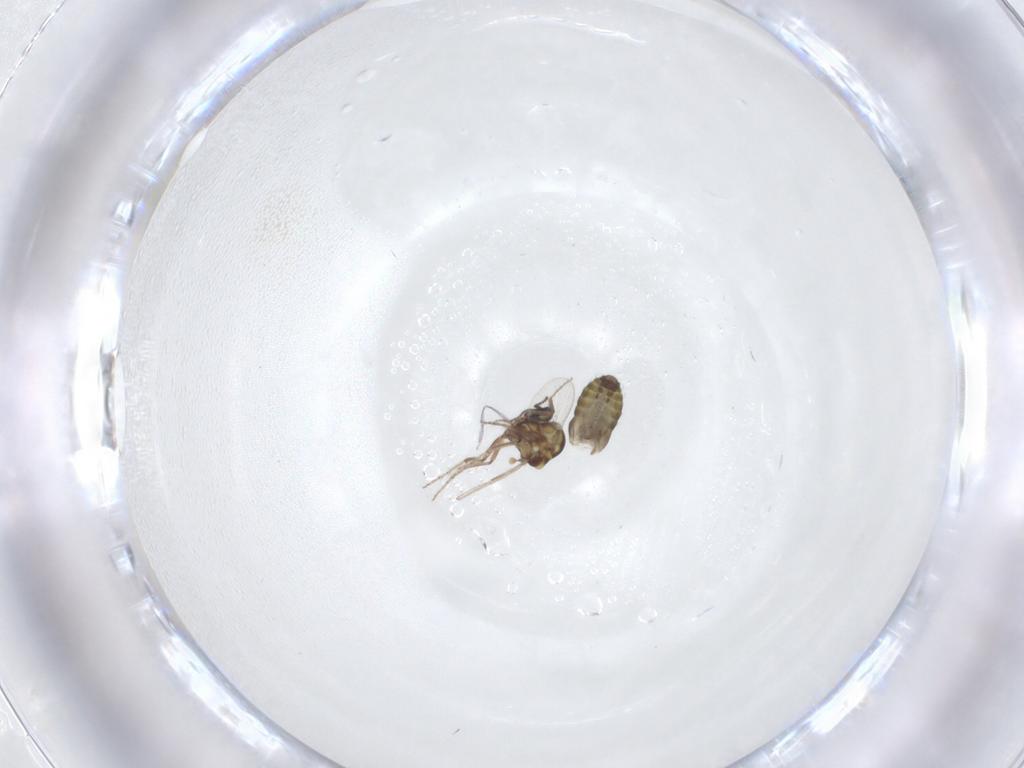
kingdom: Animalia
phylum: Arthropoda
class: Insecta
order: Diptera
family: Ceratopogonidae
